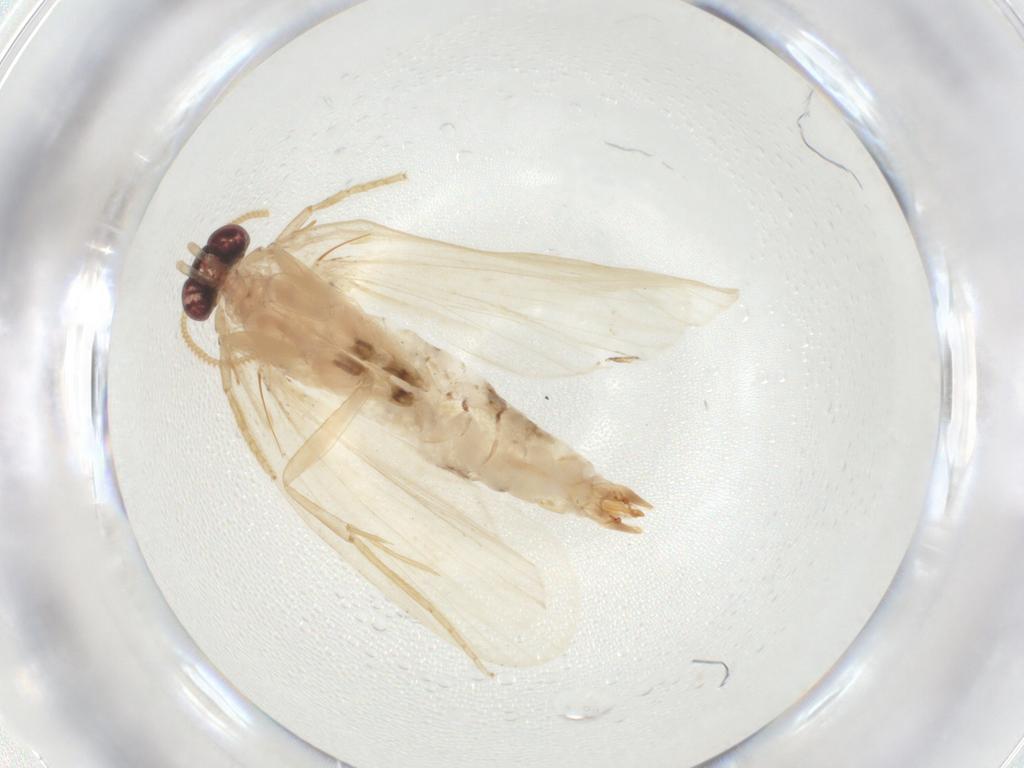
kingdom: Animalia
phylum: Arthropoda
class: Insecta
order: Lepidoptera
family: Psychidae
